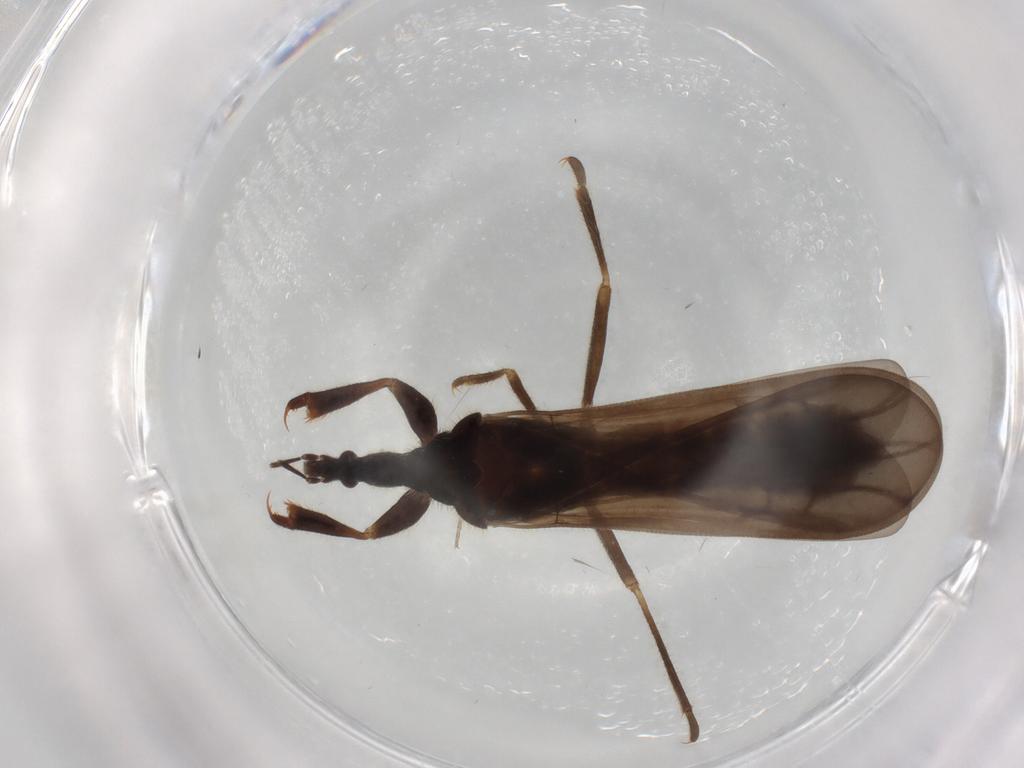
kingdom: Animalia
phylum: Arthropoda
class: Insecta
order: Hemiptera
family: Enicocephalidae
